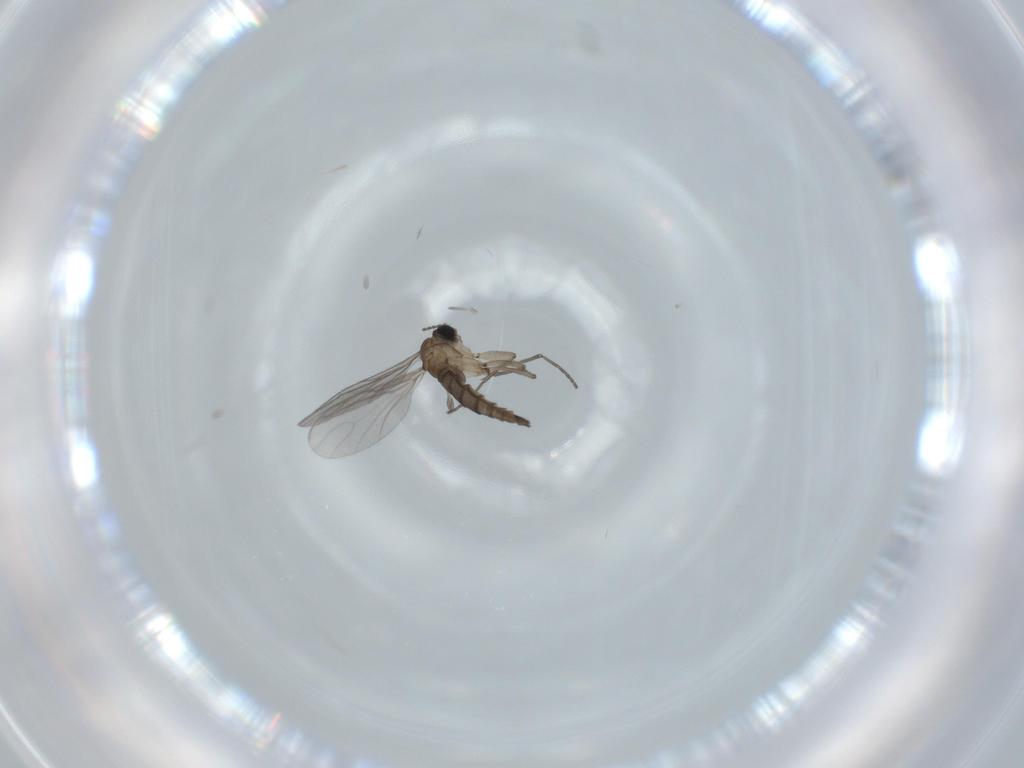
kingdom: Animalia
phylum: Arthropoda
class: Insecta
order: Diptera
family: Sciaridae
